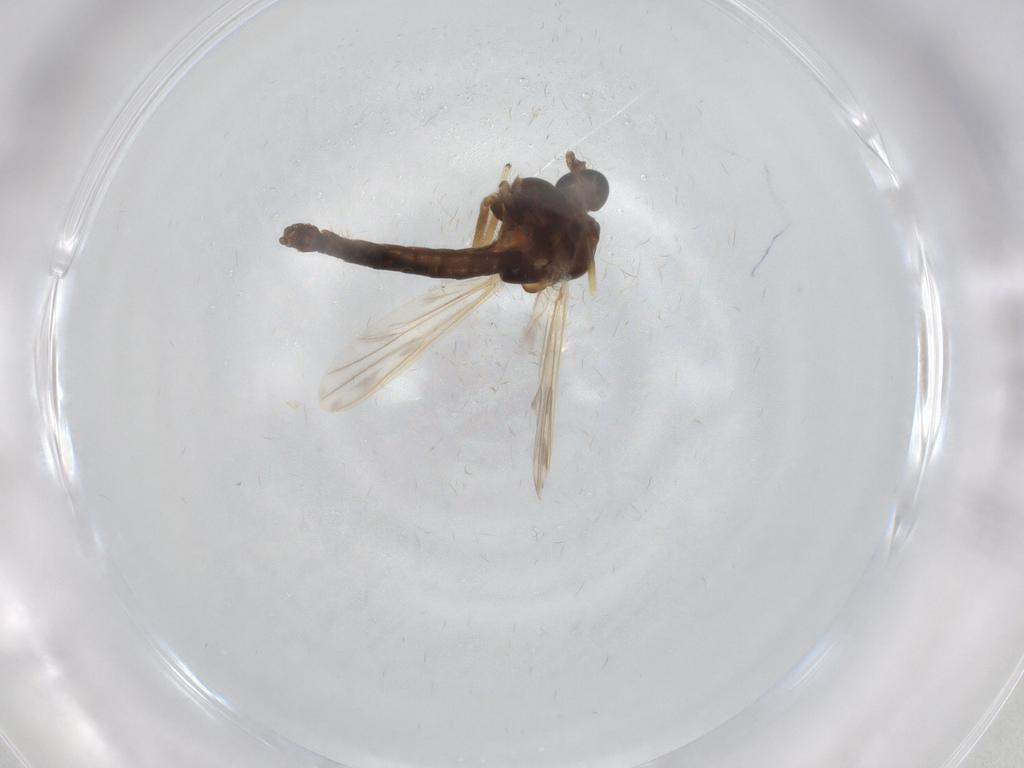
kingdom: Animalia
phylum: Arthropoda
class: Insecta
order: Diptera
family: Chironomidae
